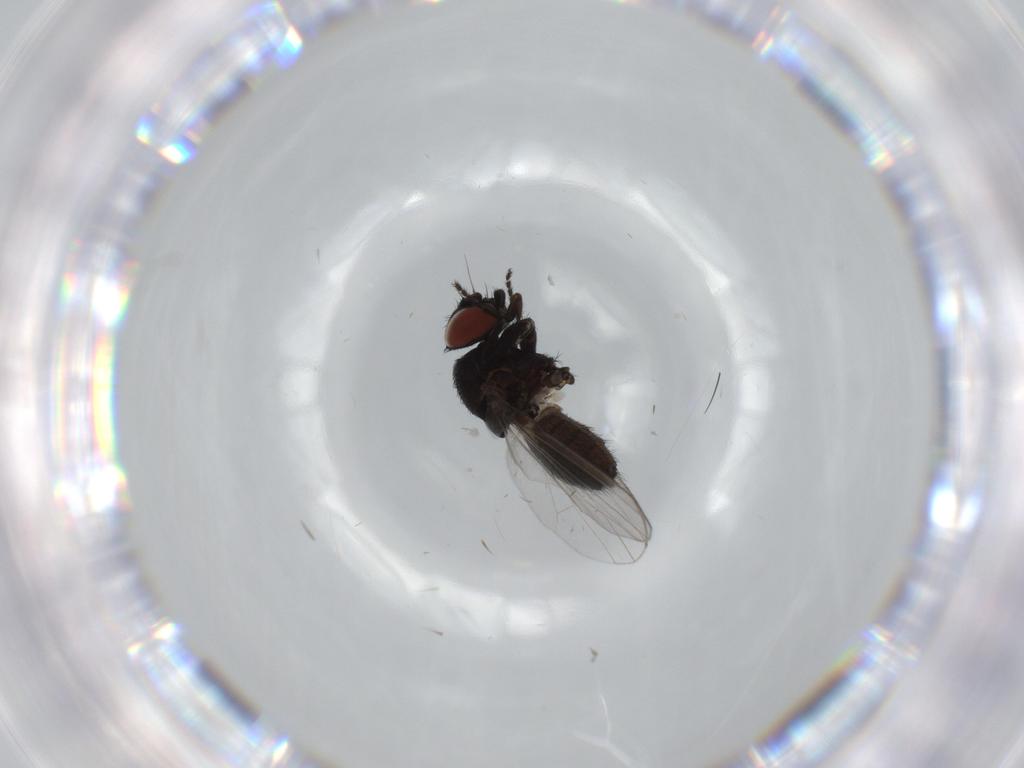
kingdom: Animalia
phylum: Arthropoda
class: Insecta
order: Diptera
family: Milichiidae
